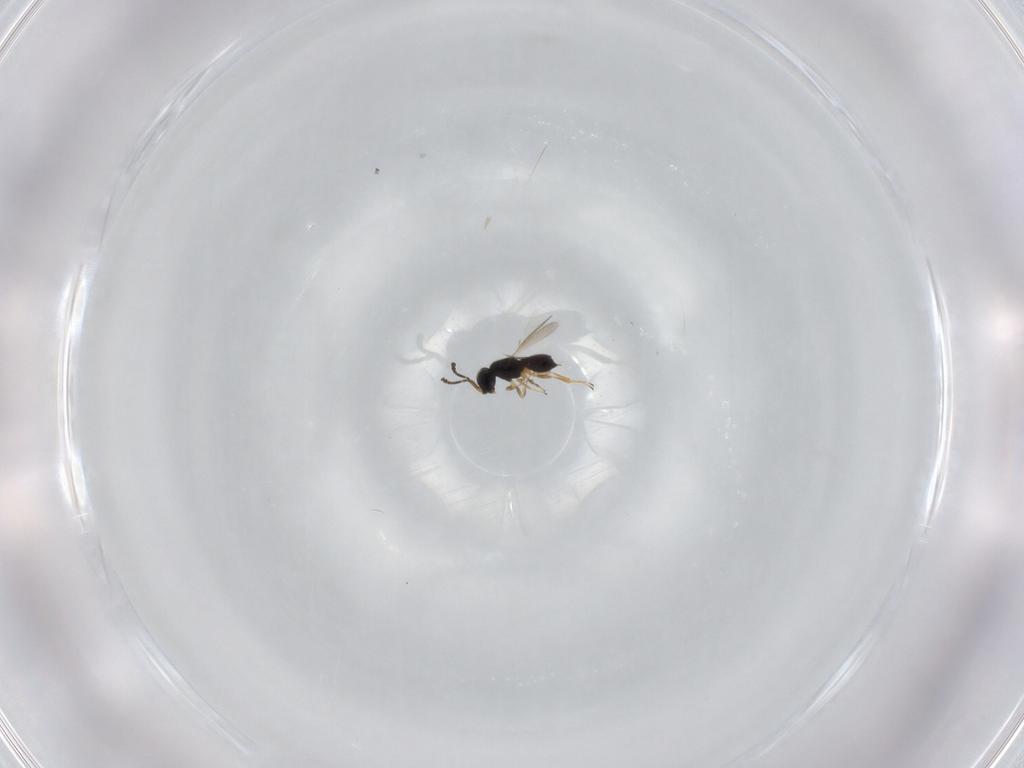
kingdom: Animalia
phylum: Arthropoda
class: Insecta
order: Hymenoptera
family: Scelionidae
